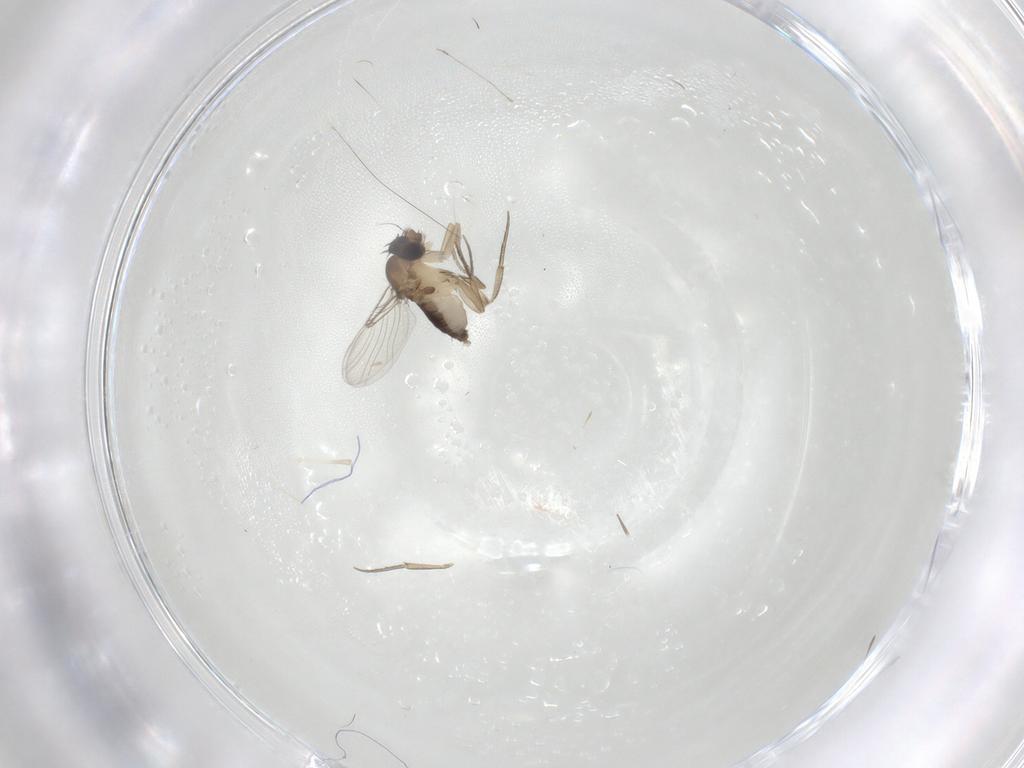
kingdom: Animalia
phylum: Arthropoda
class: Insecta
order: Diptera
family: Phoridae
